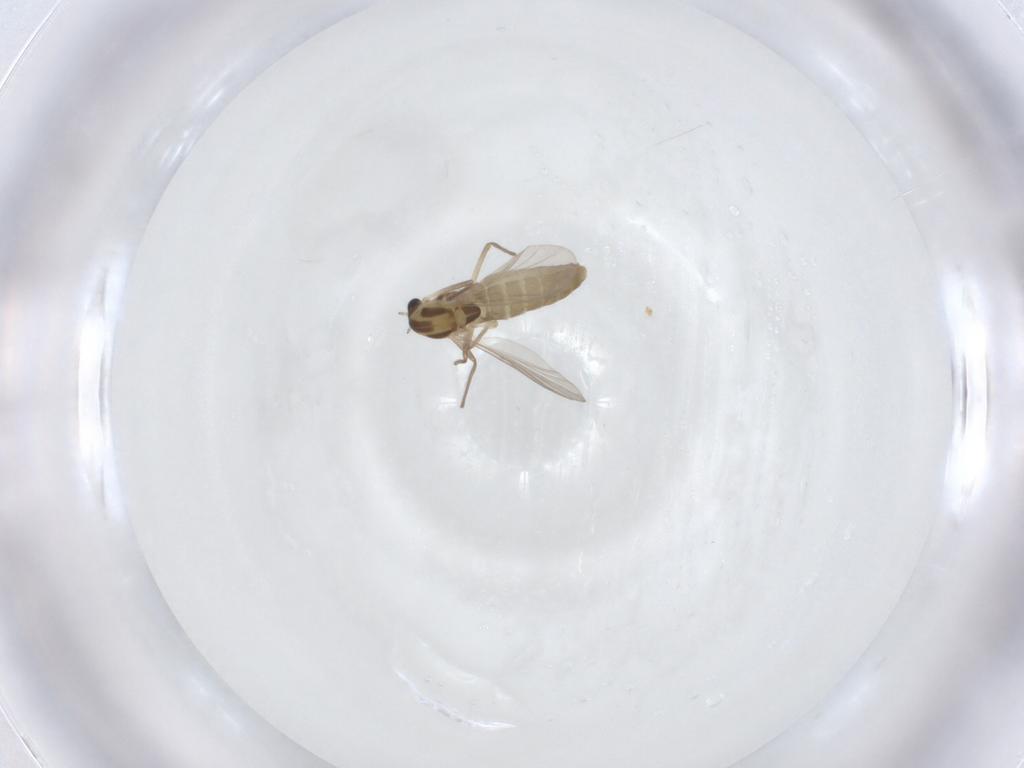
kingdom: Animalia
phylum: Arthropoda
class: Insecta
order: Diptera
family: Chironomidae
